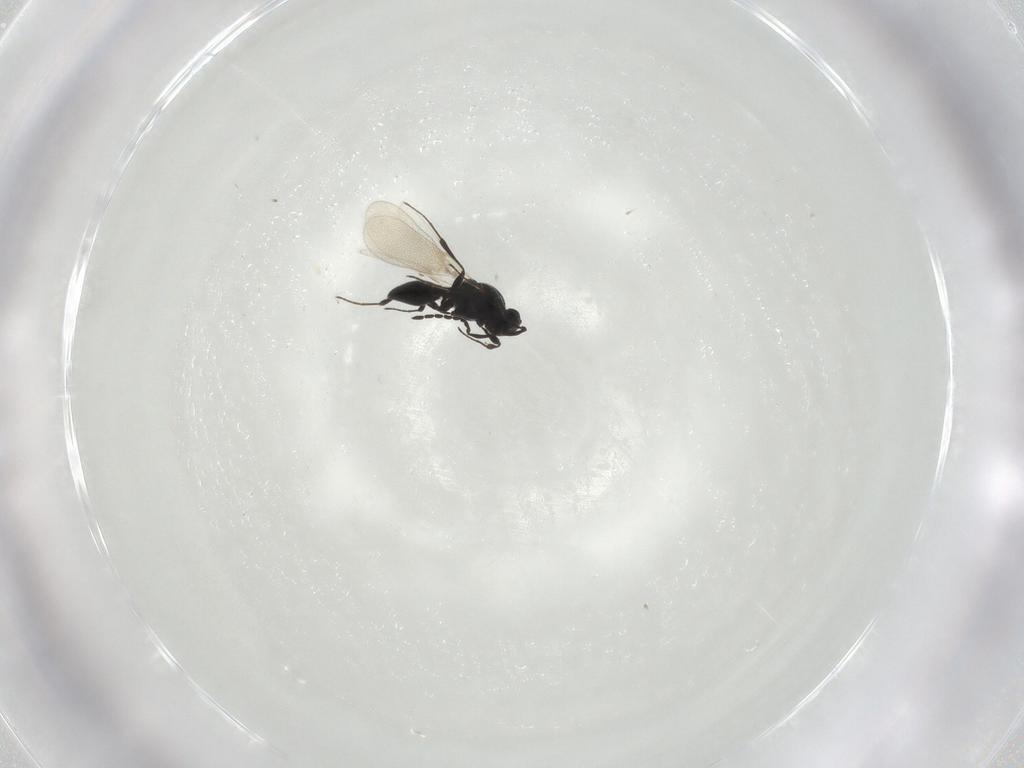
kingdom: Animalia
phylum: Arthropoda
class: Insecta
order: Hymenoptera
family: Platygastridae
